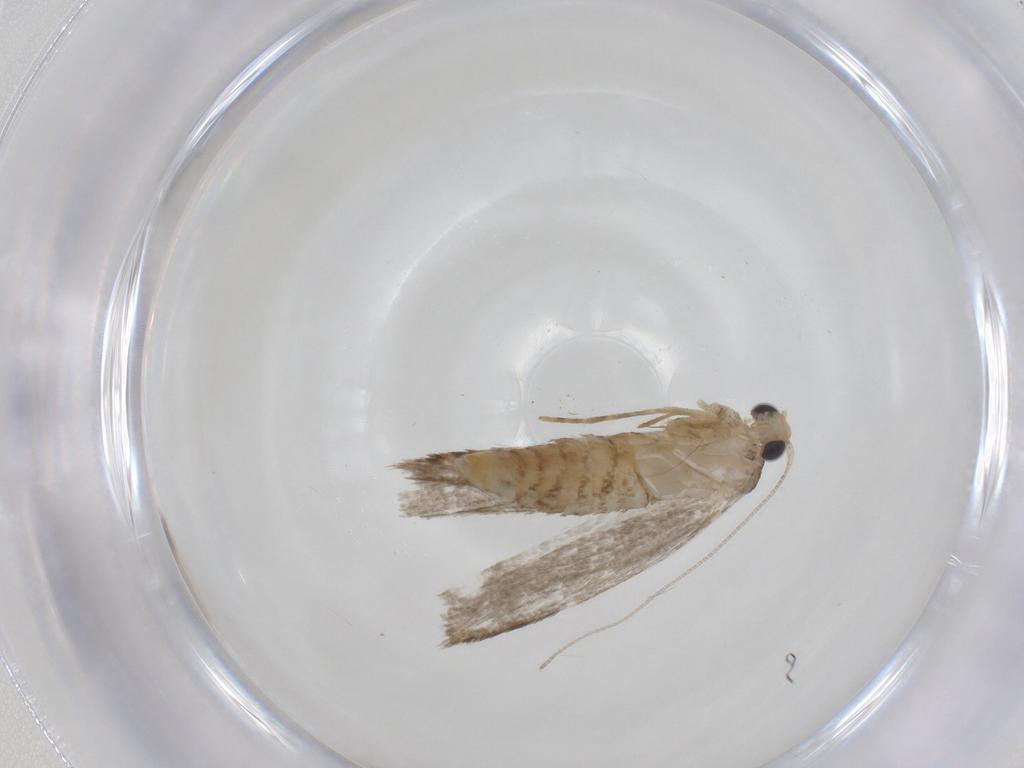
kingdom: Animalia
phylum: Arthropoda
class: Insecta
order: Lepidoptera
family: Tineidae
